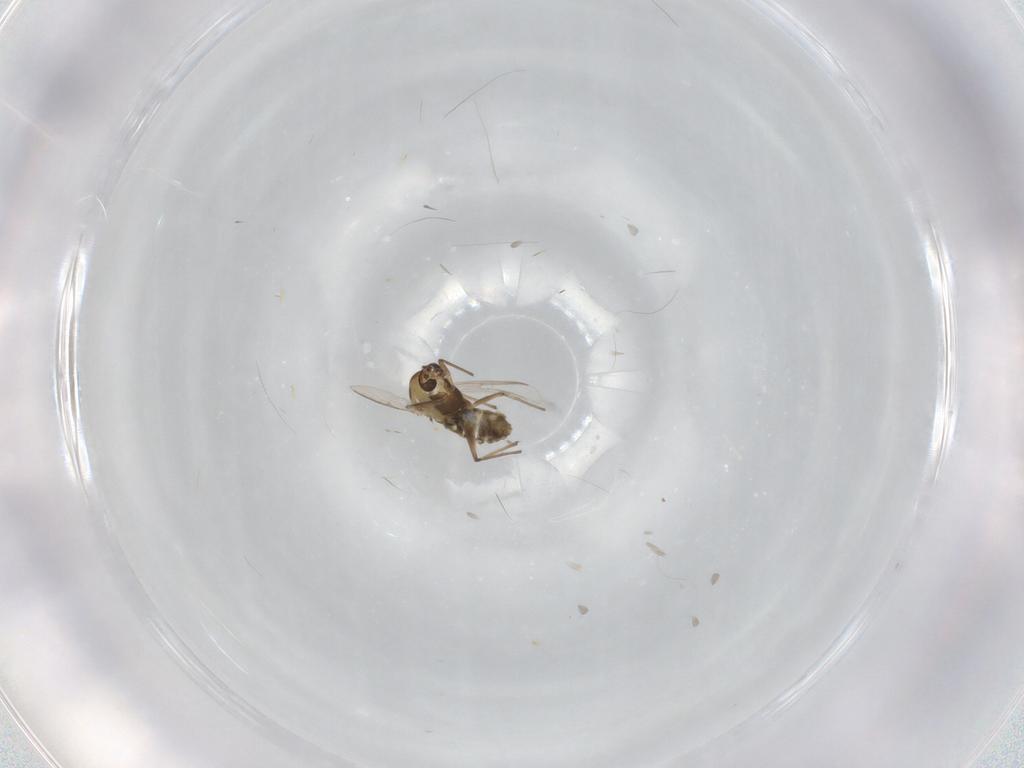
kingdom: Animalia
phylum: Arthropoda
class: Insecta
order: Diptera
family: Chironomidae
